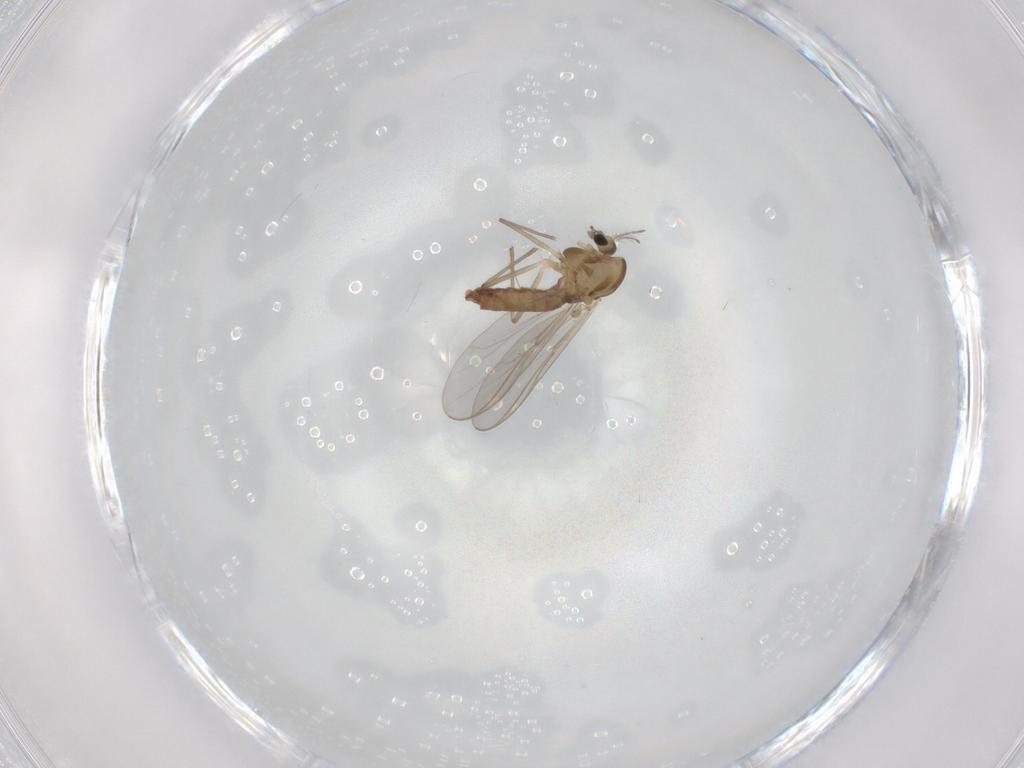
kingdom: Animalia
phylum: Arthropoda
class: Insecta
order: Diptera
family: Chironomidae
